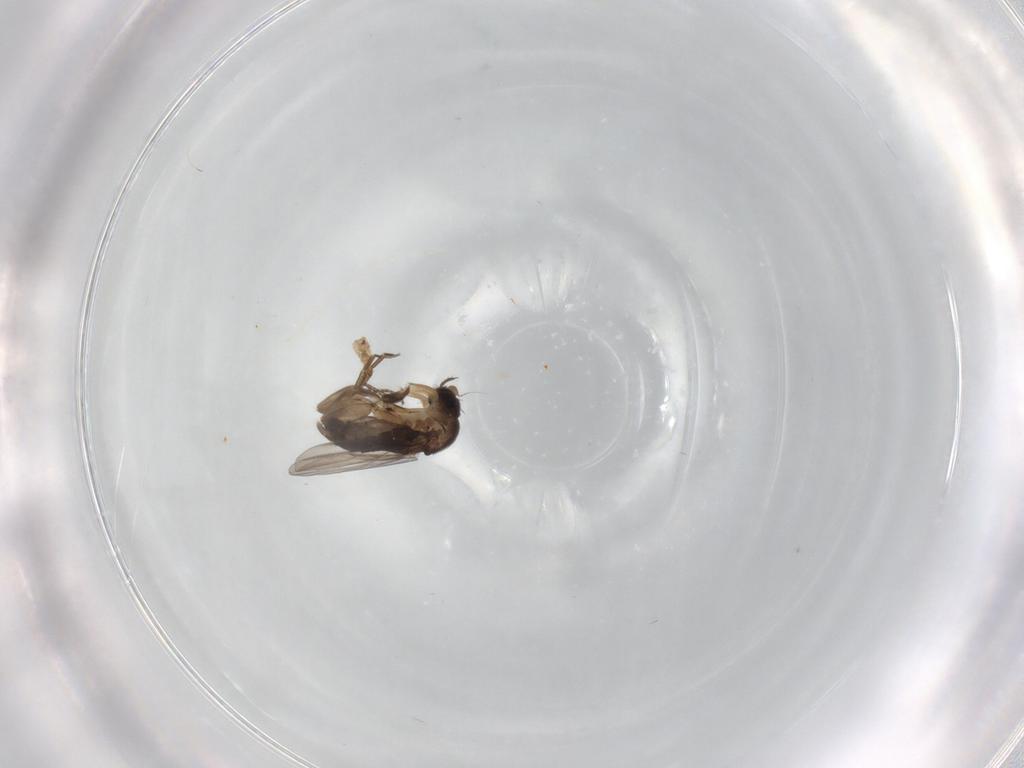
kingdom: Animalia
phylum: Arthropoda
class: Insecta
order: Diptera
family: Phoridae
